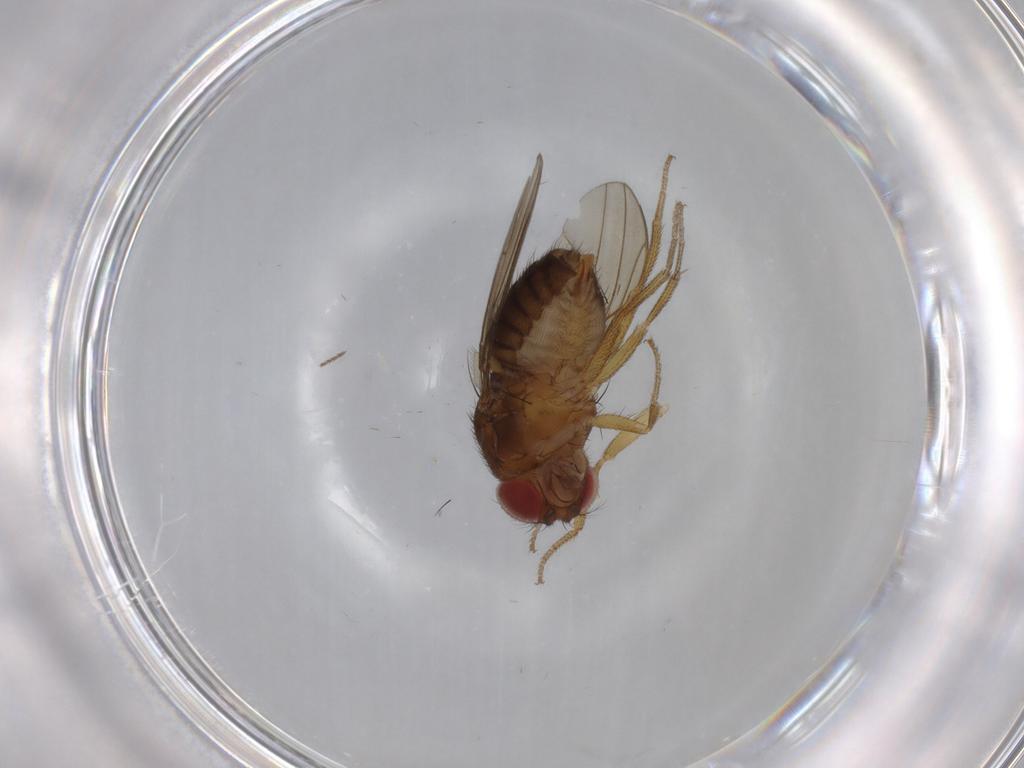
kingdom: Animalia
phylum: Arthropoda
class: Insecta
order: Diptera
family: Drosophilidae
